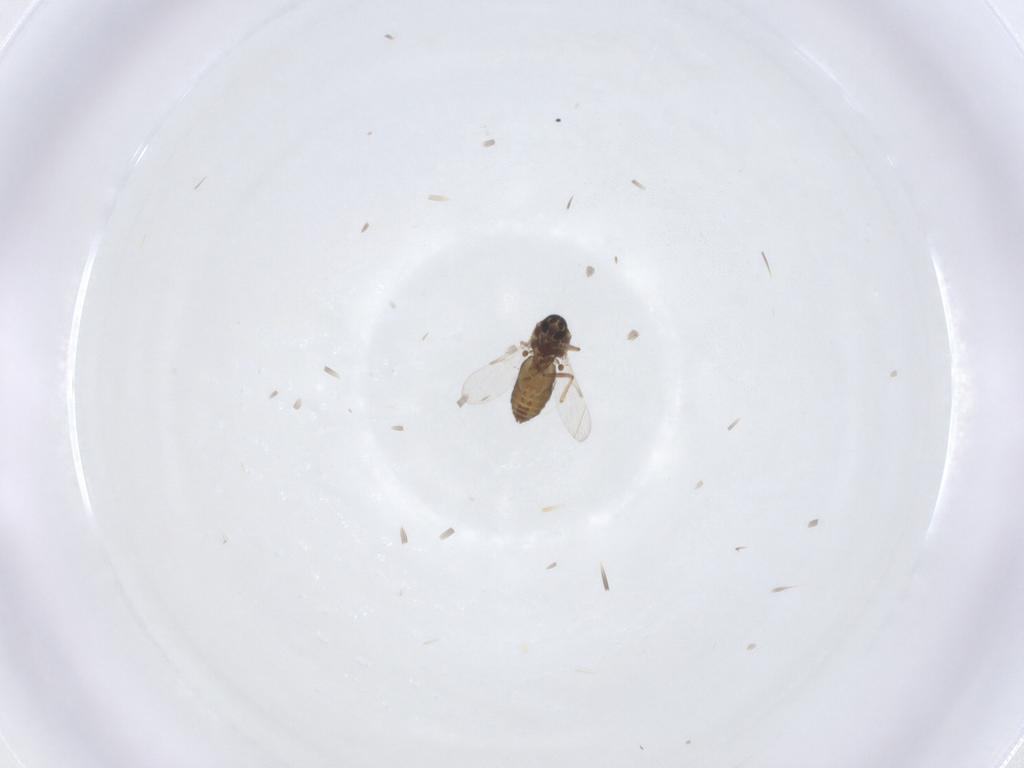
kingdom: Animalia
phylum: Arthropoda
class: Insecta
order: Diptera
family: Ceratopogonidae
